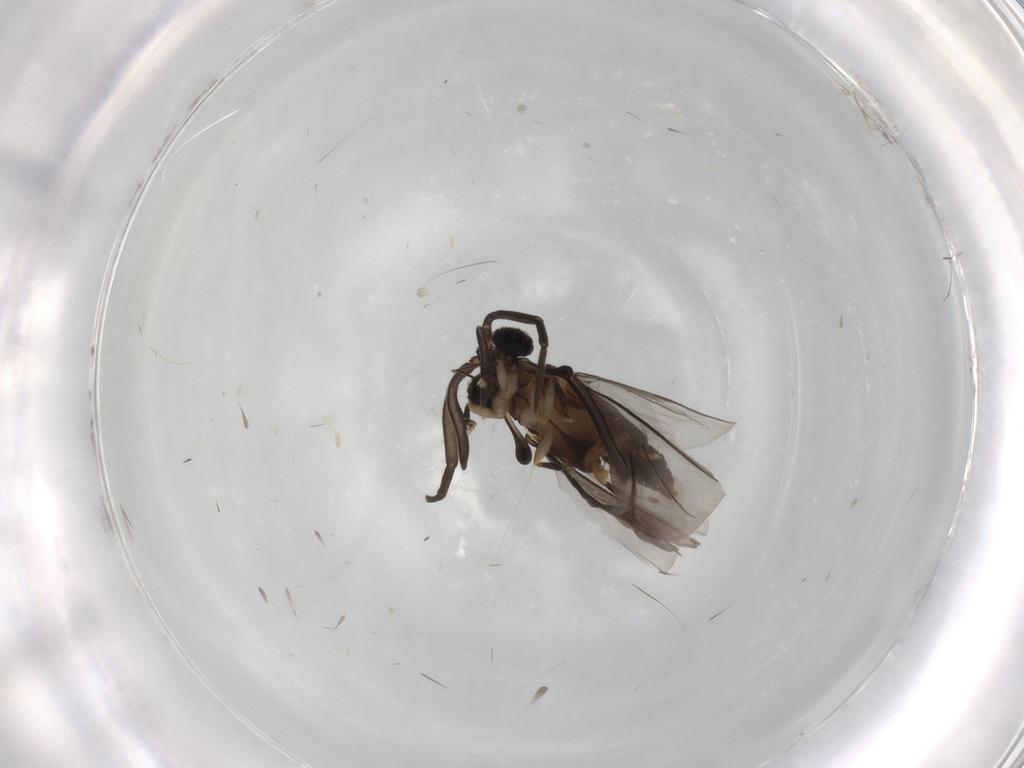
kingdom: Animalia
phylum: Arthropoda
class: Insecta
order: Strepsiptera
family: Myrmecolacidae
